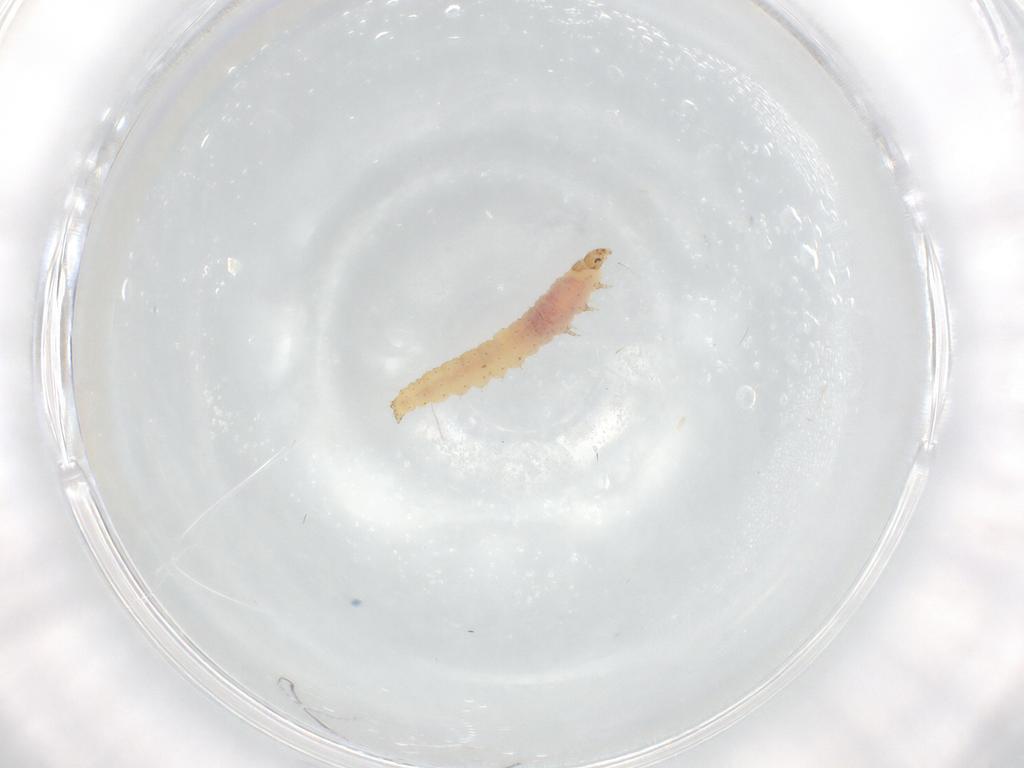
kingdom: Animalia
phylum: Arthropoda
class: Insecta
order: Lepidoptera
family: Gelechiidae
